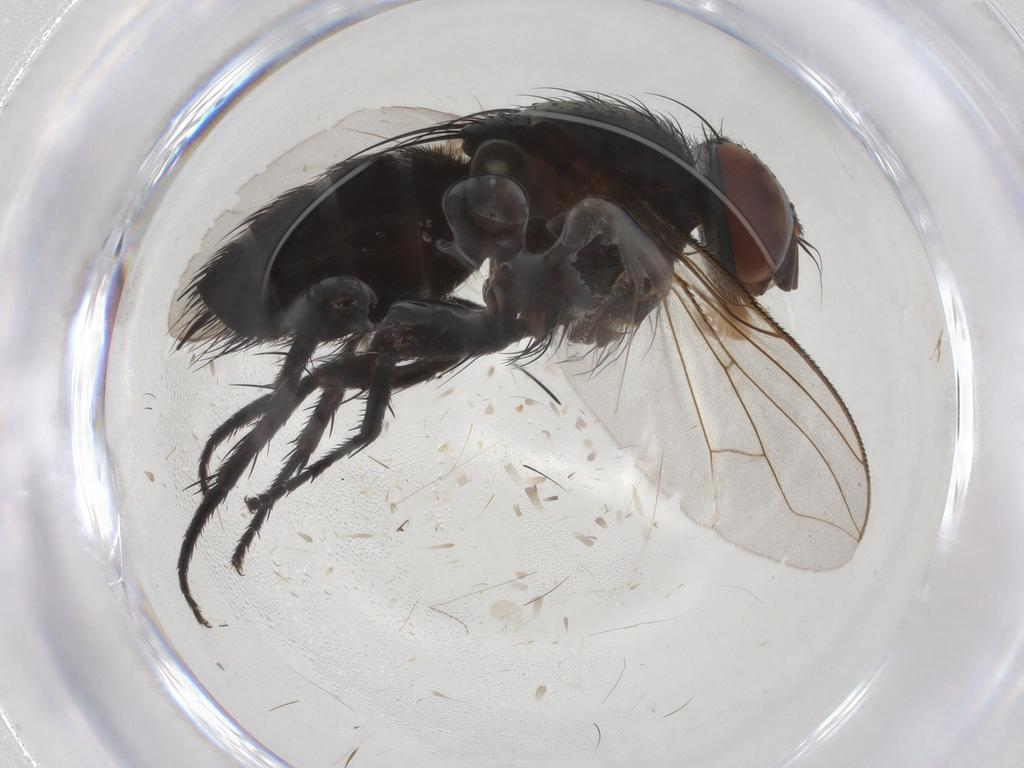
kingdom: Animalia
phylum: Arthropoda
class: Insecta
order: Diptera
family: Tachinidae
